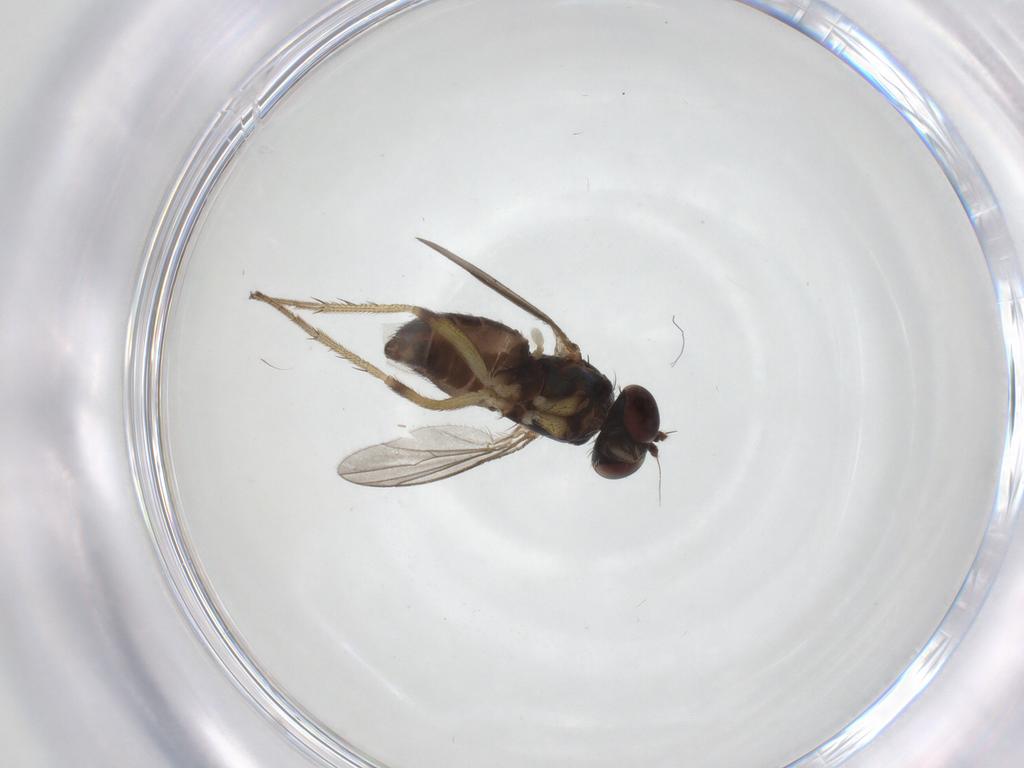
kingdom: Animalia
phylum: Arthropoda
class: Insecta
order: Diptera
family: Dolichopodidae
